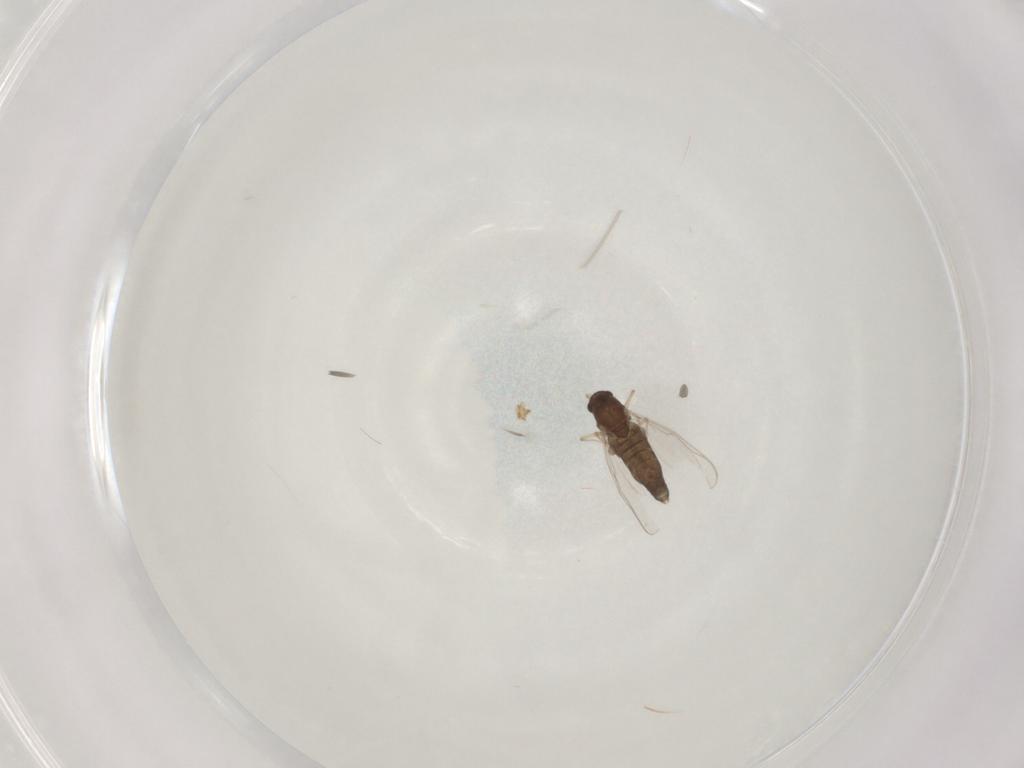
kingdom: Animalia
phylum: Arthropoda
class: Insecta
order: Diptera
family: Chironomidae
